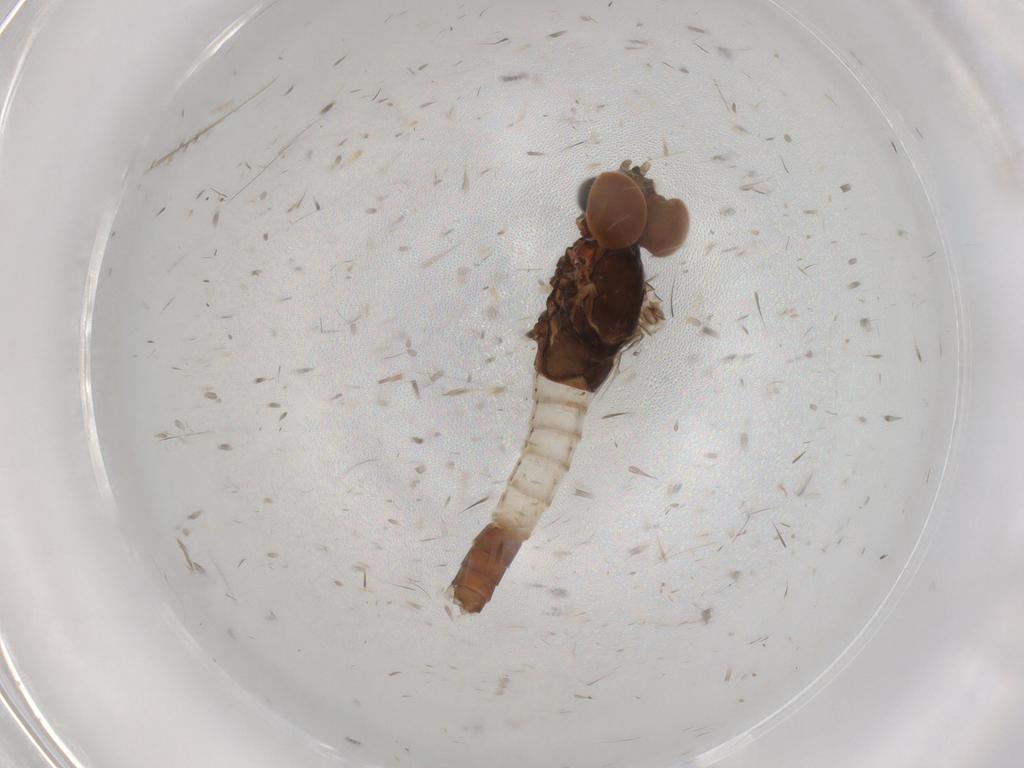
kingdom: Animalia
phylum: Arthropoda
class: Insecta
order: Ephemeroptera
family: Baetidae
